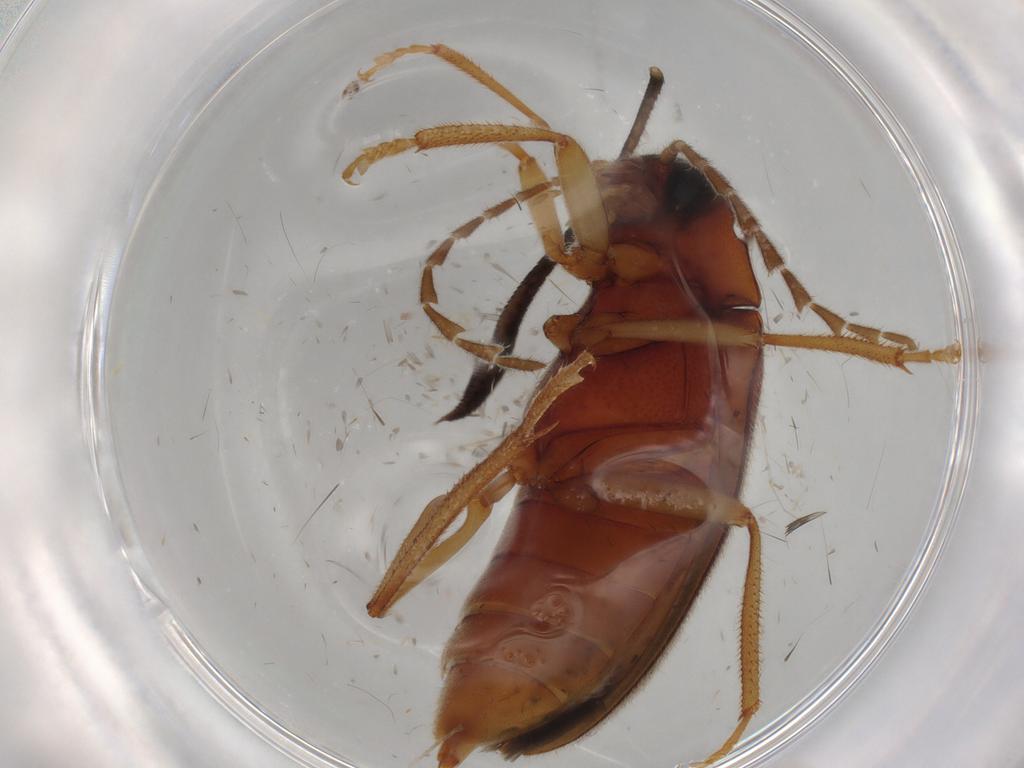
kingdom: Animalia
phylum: Arthropoda
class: Insecta
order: Coleoptera
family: Ptilodactylidae
